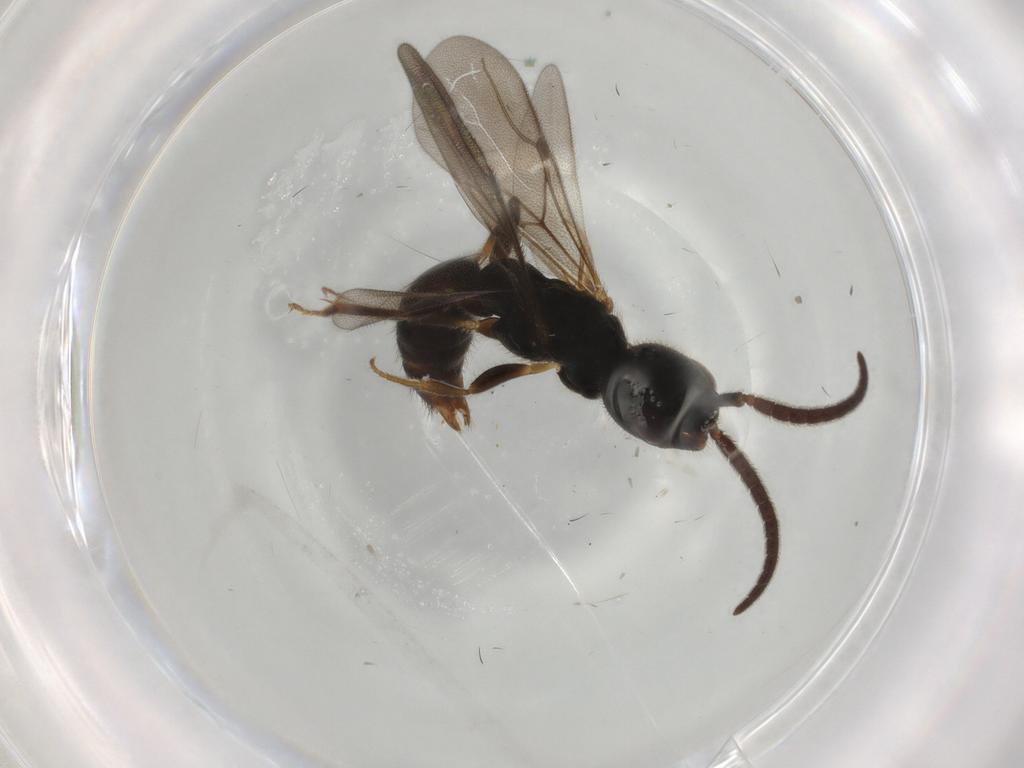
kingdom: Animalia
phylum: Arthropoda
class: Insecta
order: Hymenoptera
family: Bethylidae
